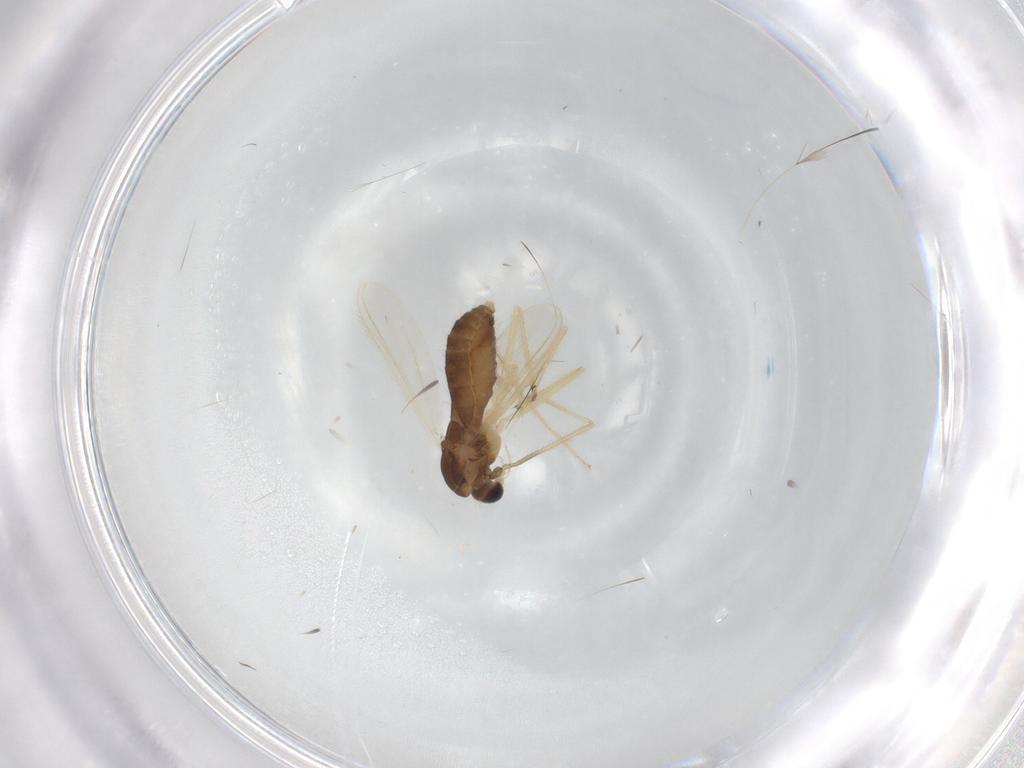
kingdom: Animalia
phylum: Arthropoda
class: Insecta
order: Diptera
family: Chironomidae
